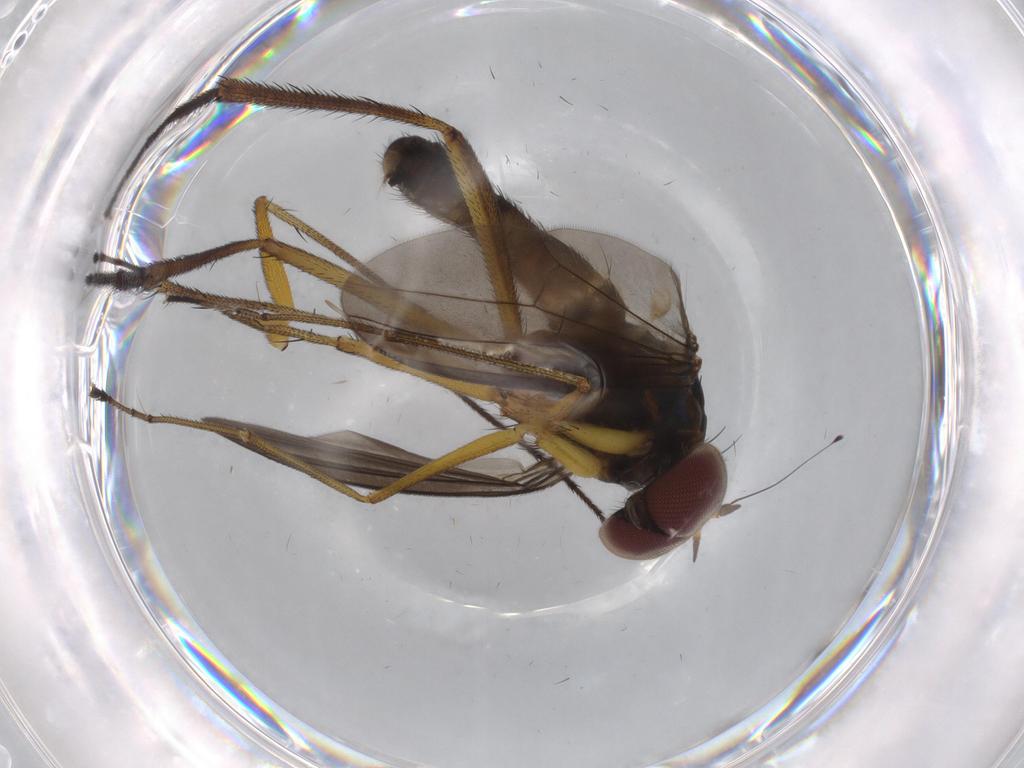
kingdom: Animalia
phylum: Arthropoda
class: Insecta
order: Diptera
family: Dolichopodidae
